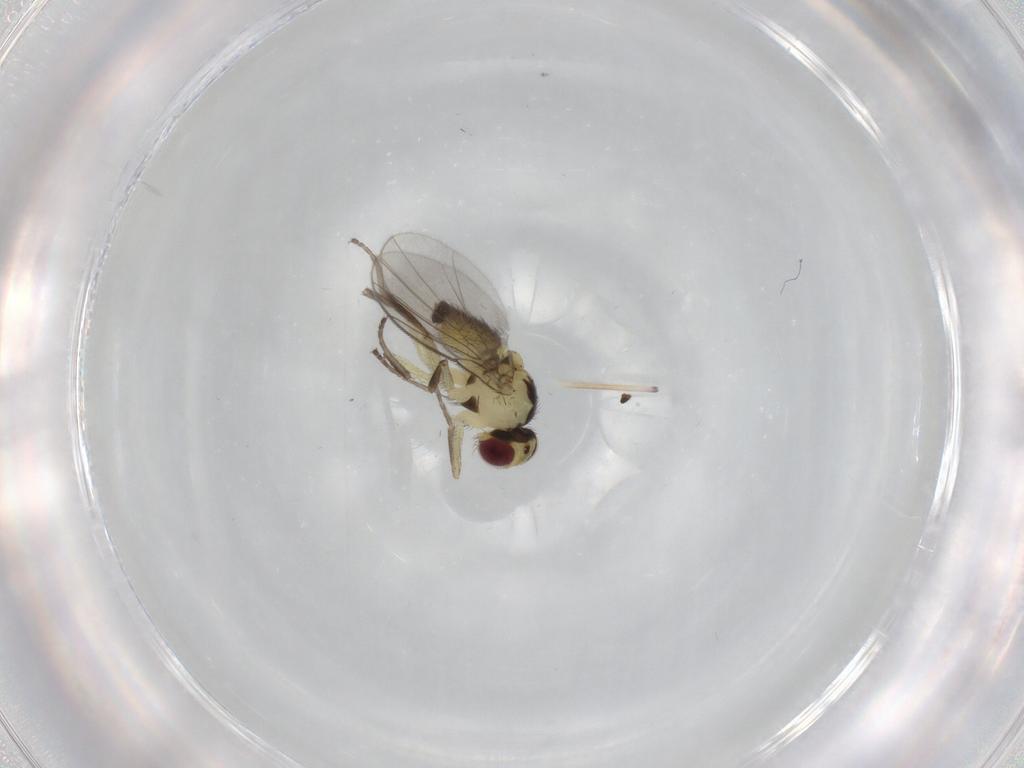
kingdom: Animalia
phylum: Arthropoda
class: Insecta
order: Diptera
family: Agromyzidae
